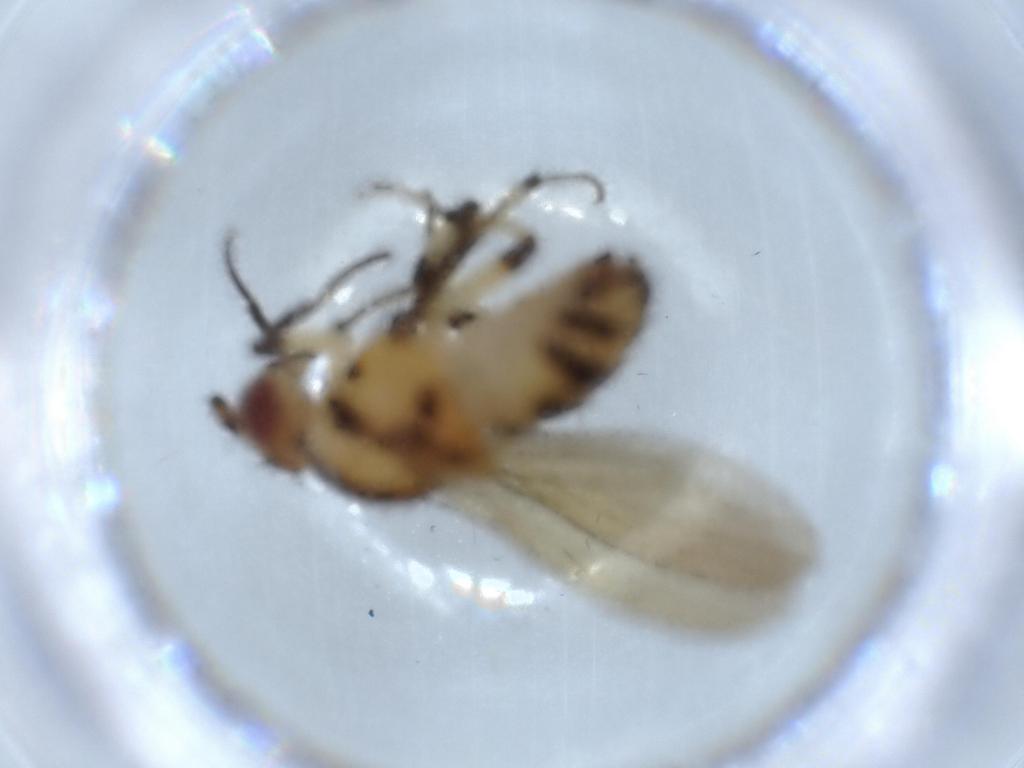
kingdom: Animalia
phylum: Arthropoda
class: Insecta
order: Diptera
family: Lauxaniidae
